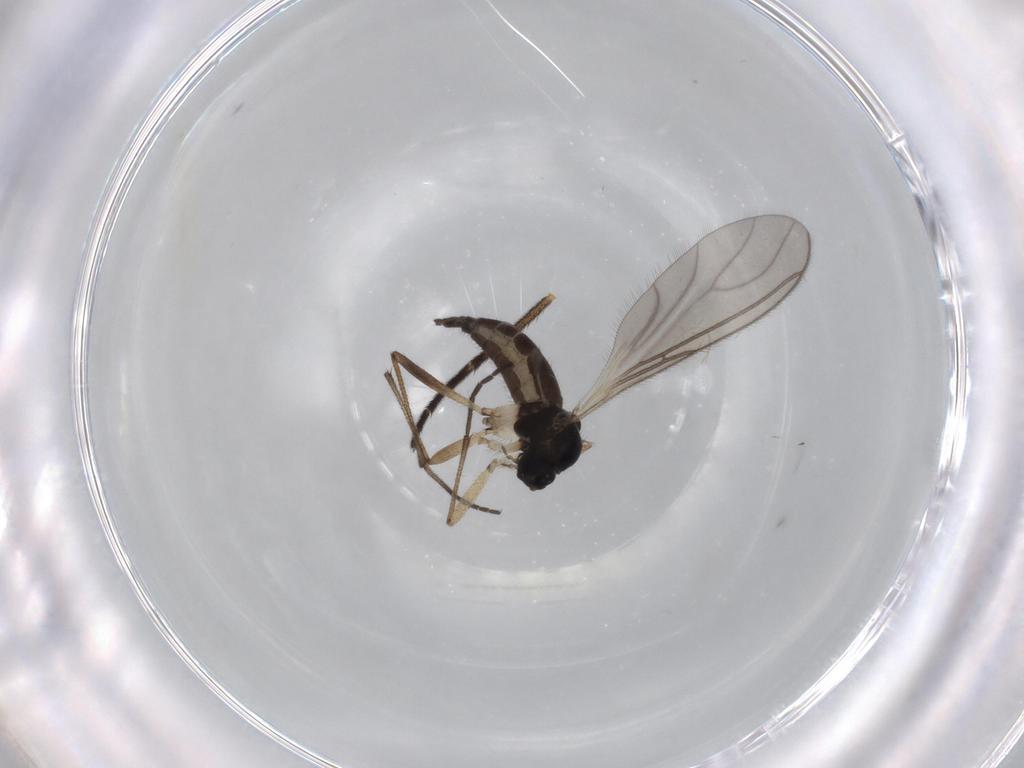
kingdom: Animalia
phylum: Arthropoda
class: Insecta
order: Diptera
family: Sciaridae
